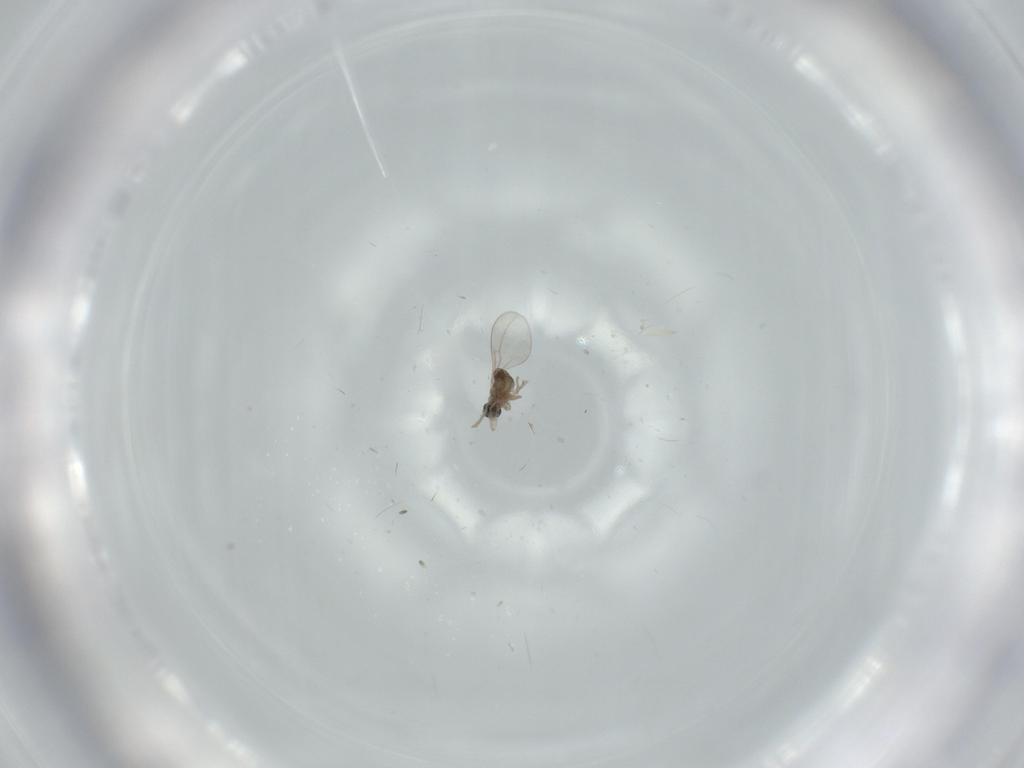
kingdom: Animalia
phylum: Arthropoda
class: Insecta
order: Diptera
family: Cecidomyiidae
